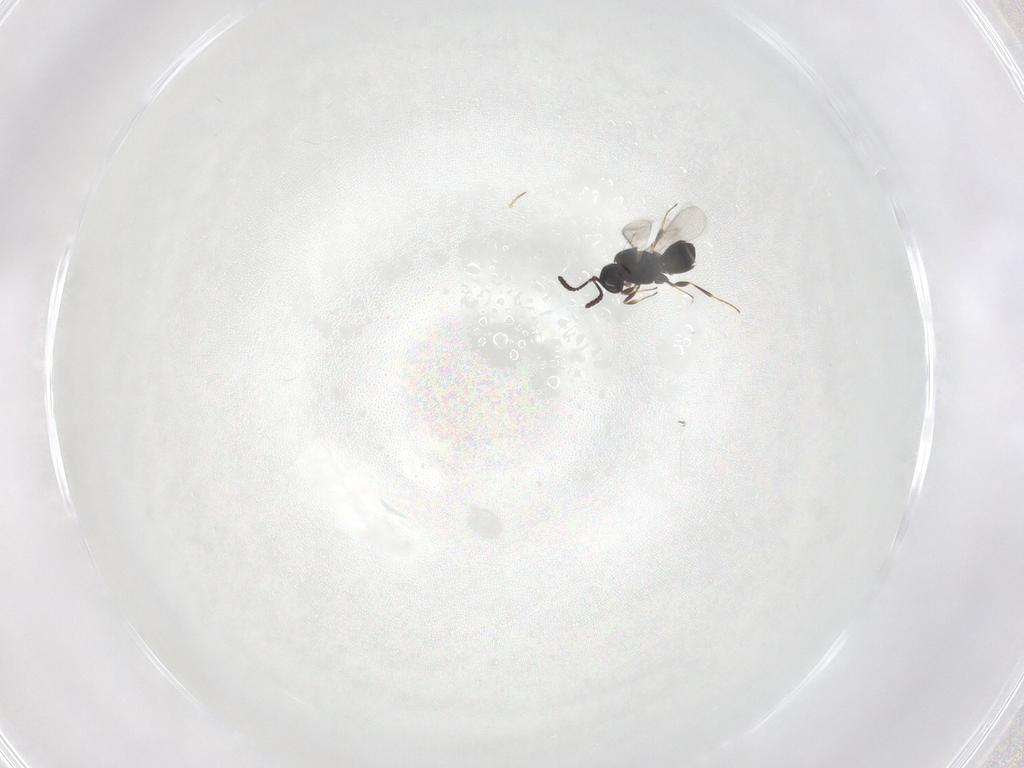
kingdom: Animalia
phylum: Arthropoda
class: Insecta
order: Hymenoptera
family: Scelionidae
